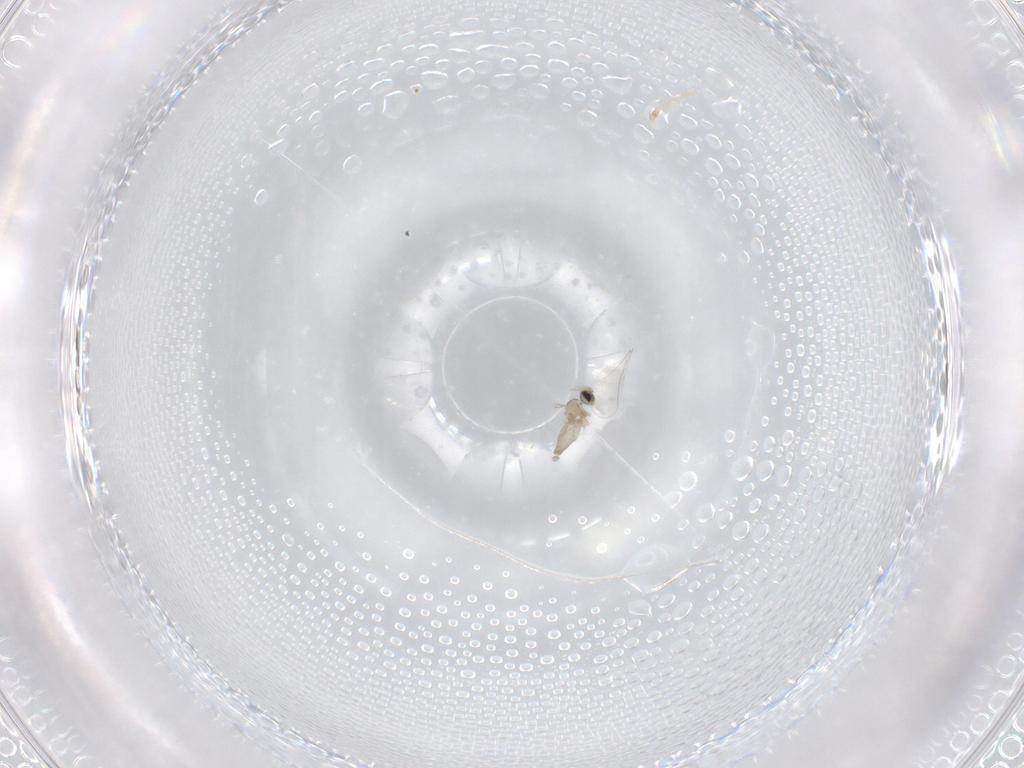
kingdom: Animalia
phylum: Arthropoda
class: Insecta
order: Diptera
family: Cecidomyiidae
